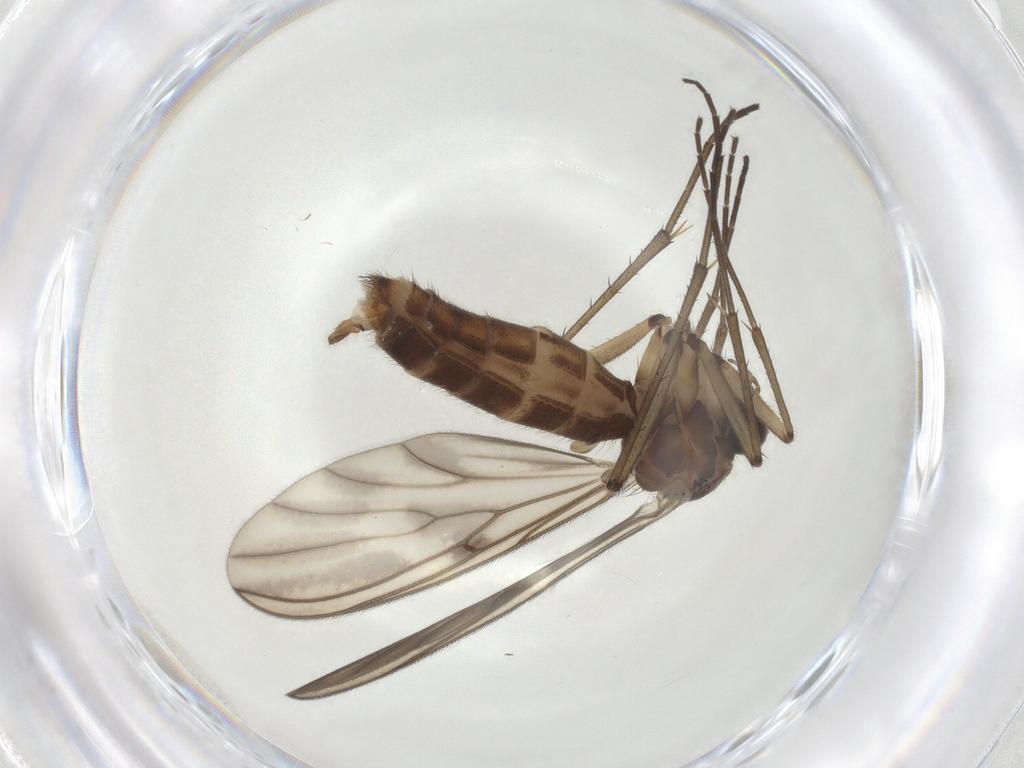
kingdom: Animalia
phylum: Arthropoda
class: Insecta
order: Diptera
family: Mycetophilidae
